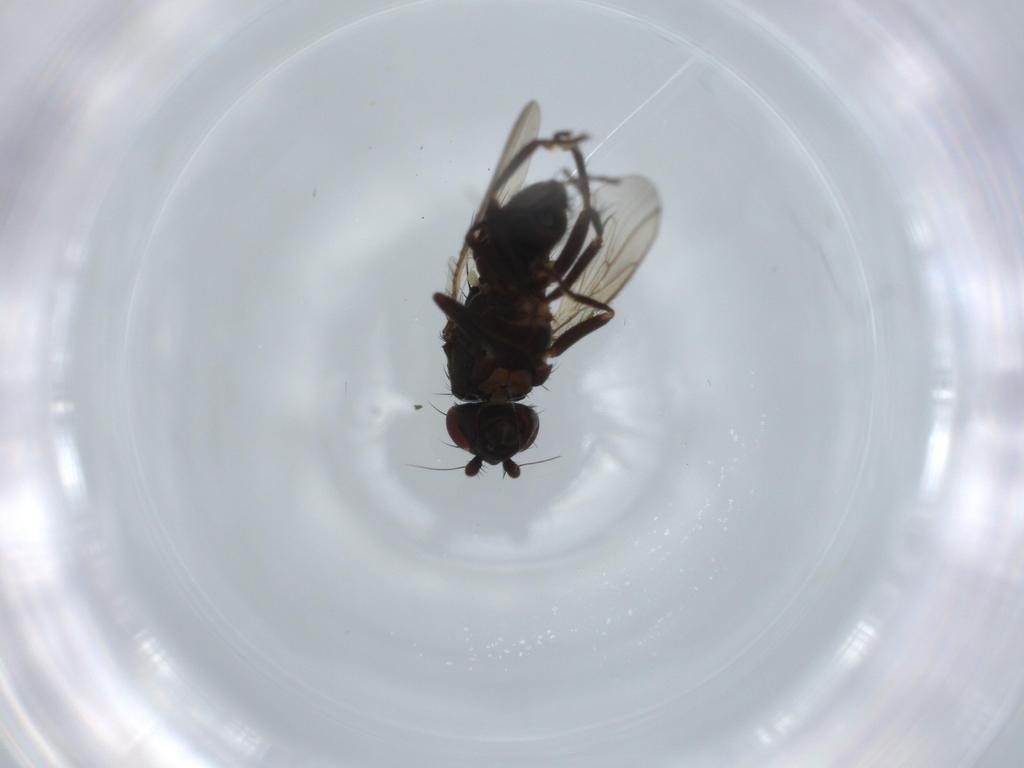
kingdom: Animalia
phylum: Arthropoda
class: Insecta
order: Diptera
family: Sphaeroceridae
